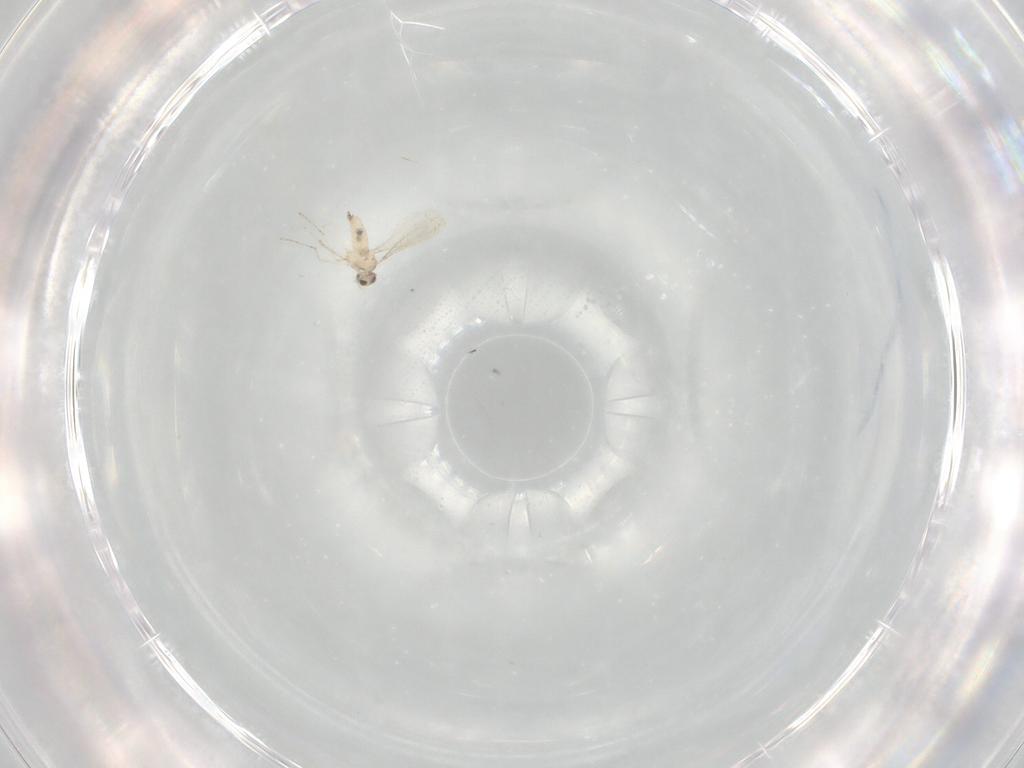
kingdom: Animalia
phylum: Arthropoda
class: Insecta
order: Diptera
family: Cecidomyiidae
